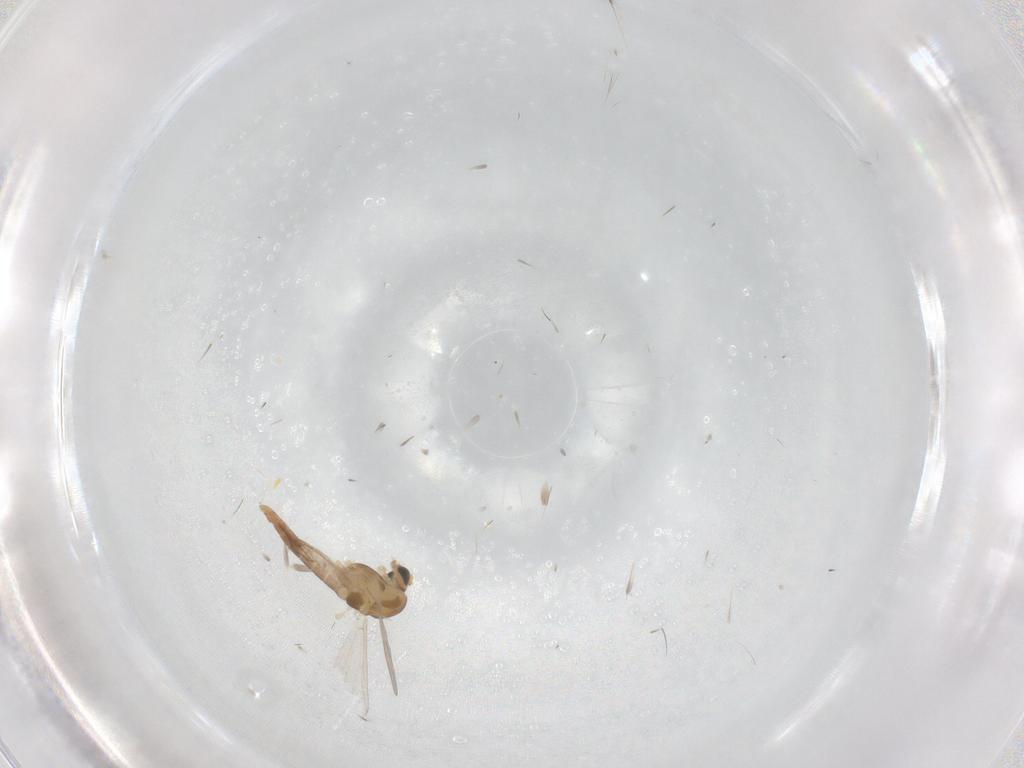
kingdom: Animalia
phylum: Arthropoda
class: Insecta
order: Diptera
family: Chironomidae
